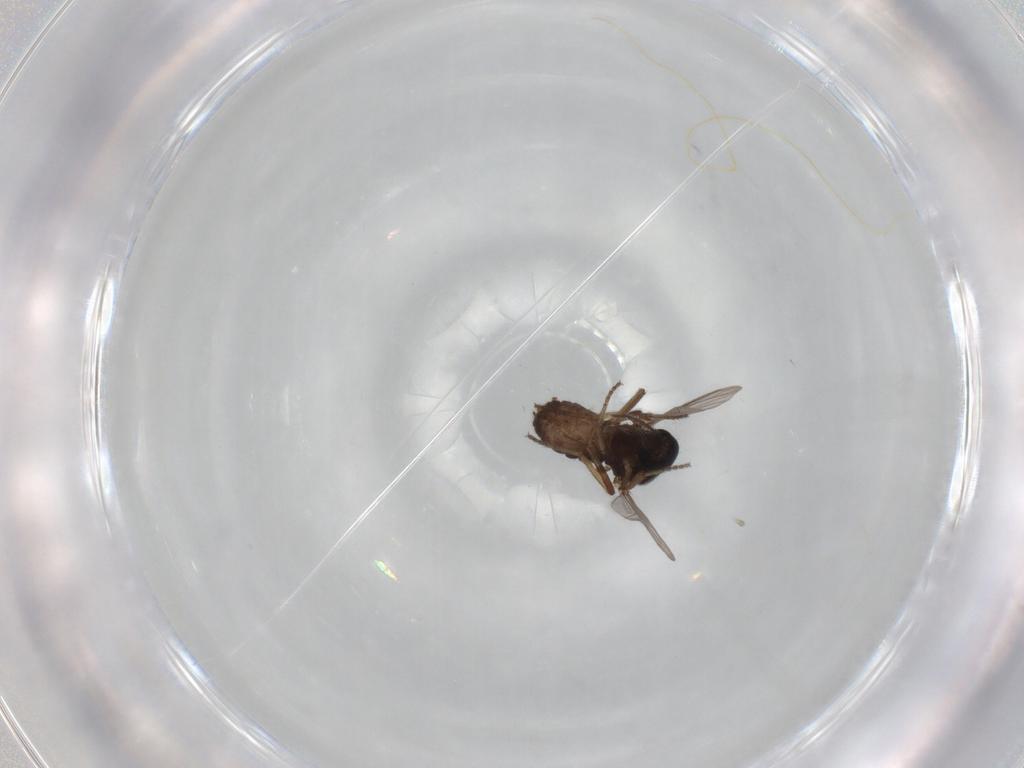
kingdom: Animalia
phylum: Arthropoda
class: Insecta
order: Diptera
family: Ceratopogonidae
